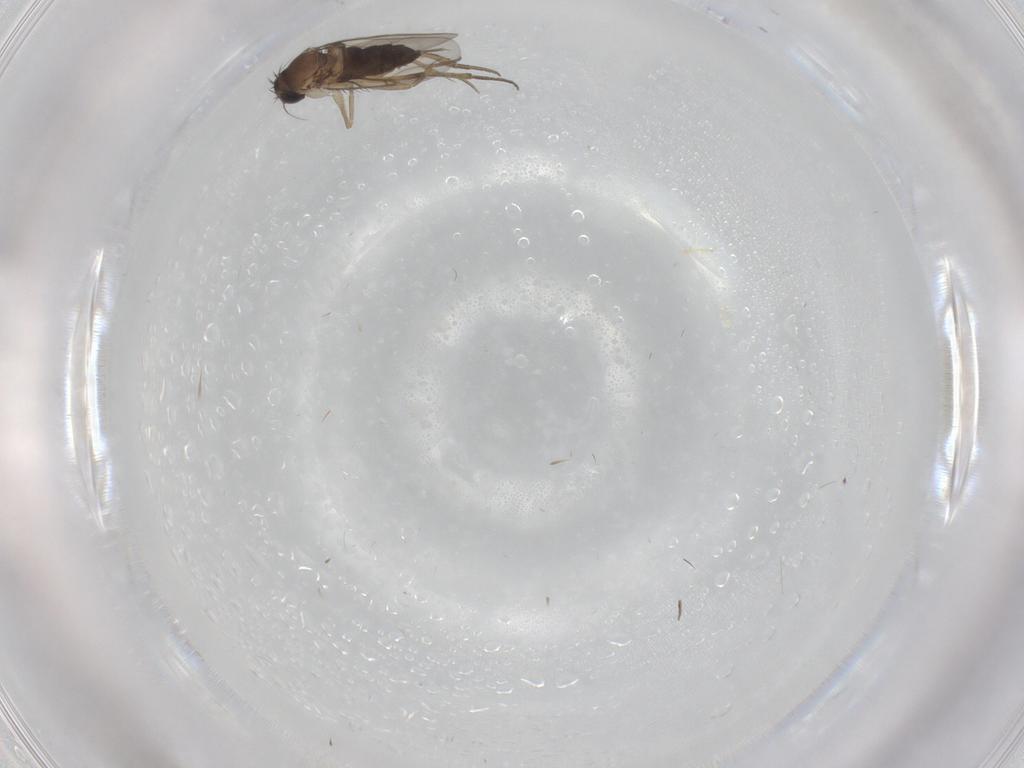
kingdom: Animalia
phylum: Arthropoda
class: Insecta
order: Diptera
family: Phoridae
